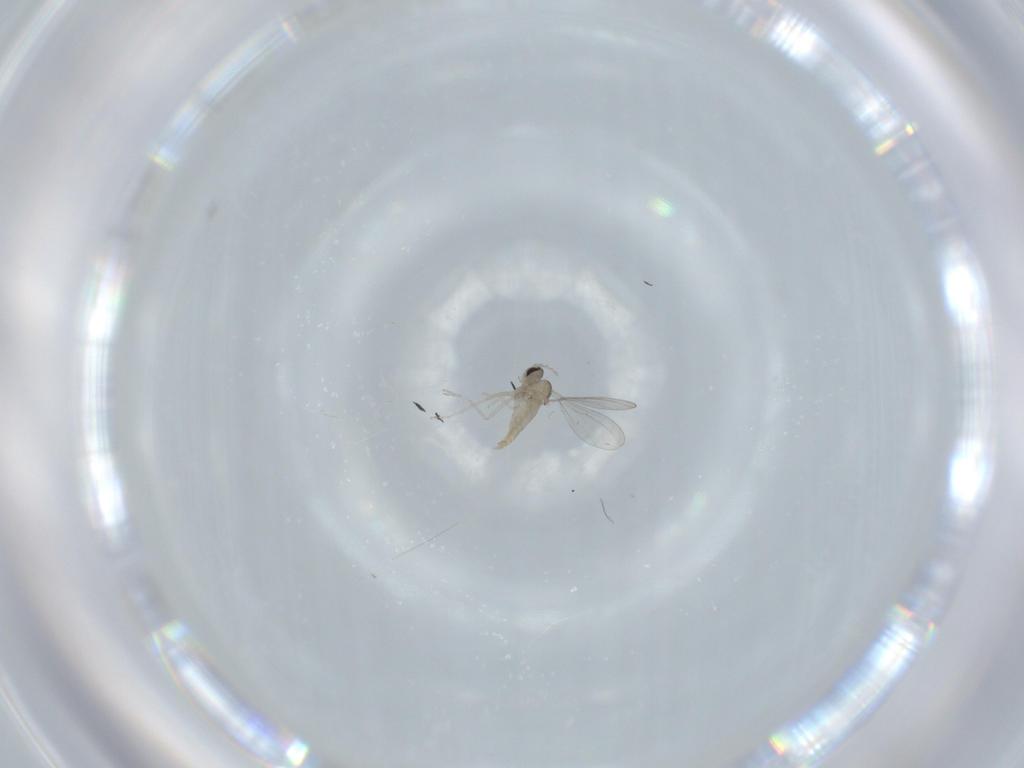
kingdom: Animalia
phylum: Arthropoda
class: Insecta
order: Diptera
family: Cecidomyiidae
